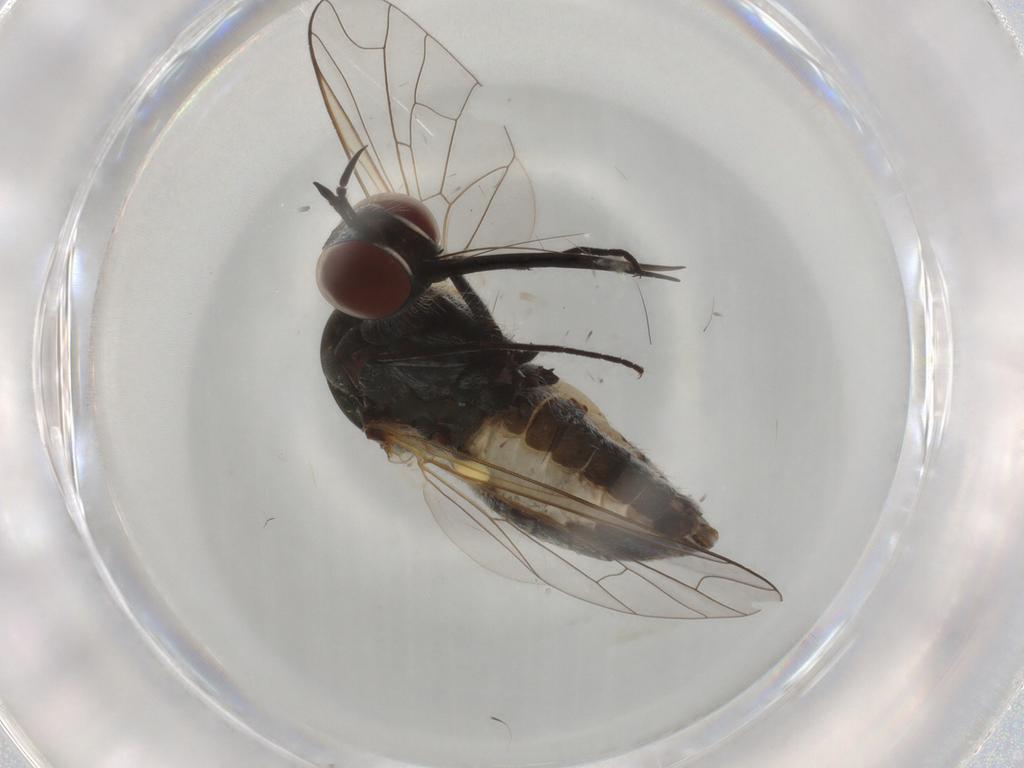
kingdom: Animalia
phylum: Arthropoda
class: Insecta
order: Diptera
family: Bombyliidae
